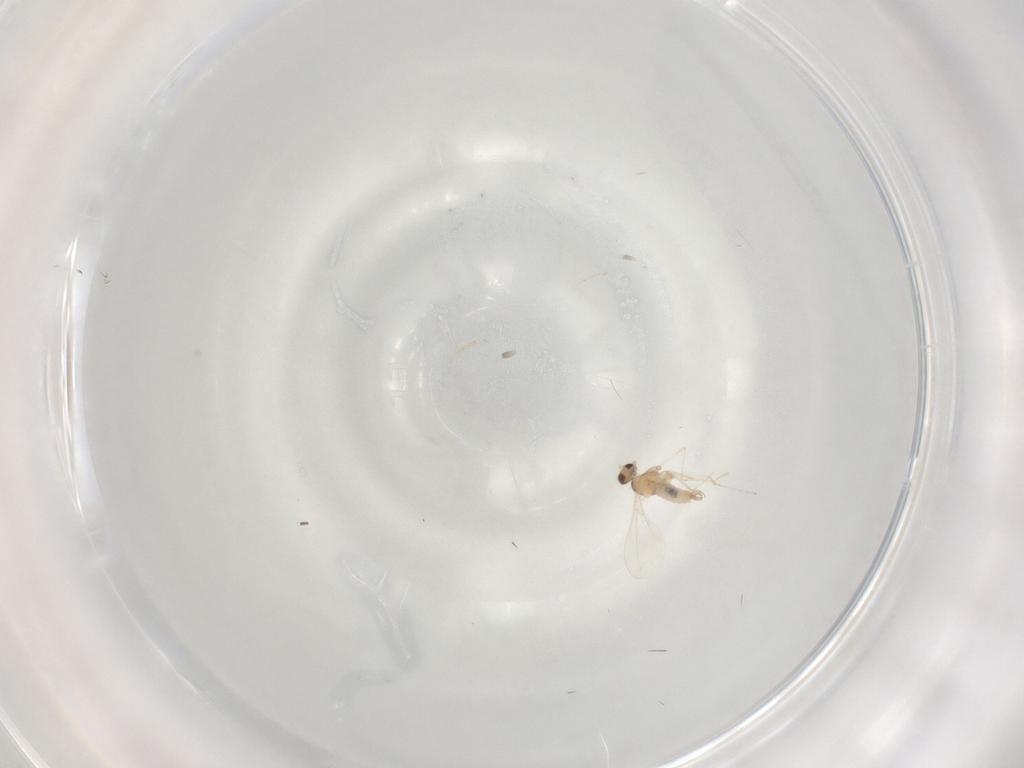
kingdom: Animalia
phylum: Arthropoda
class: Insecta
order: Diptera
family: Cecidomyiidae
